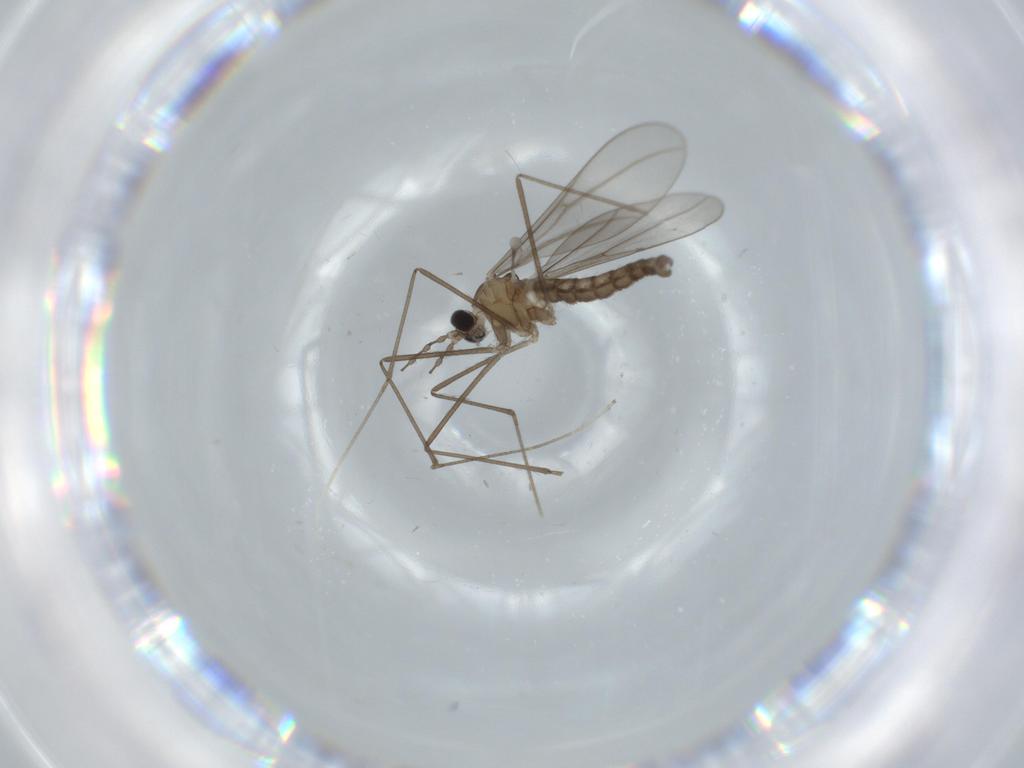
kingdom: Animalia
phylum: Arthropoda
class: Insecta
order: Diptera
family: Cecidomyiidae
